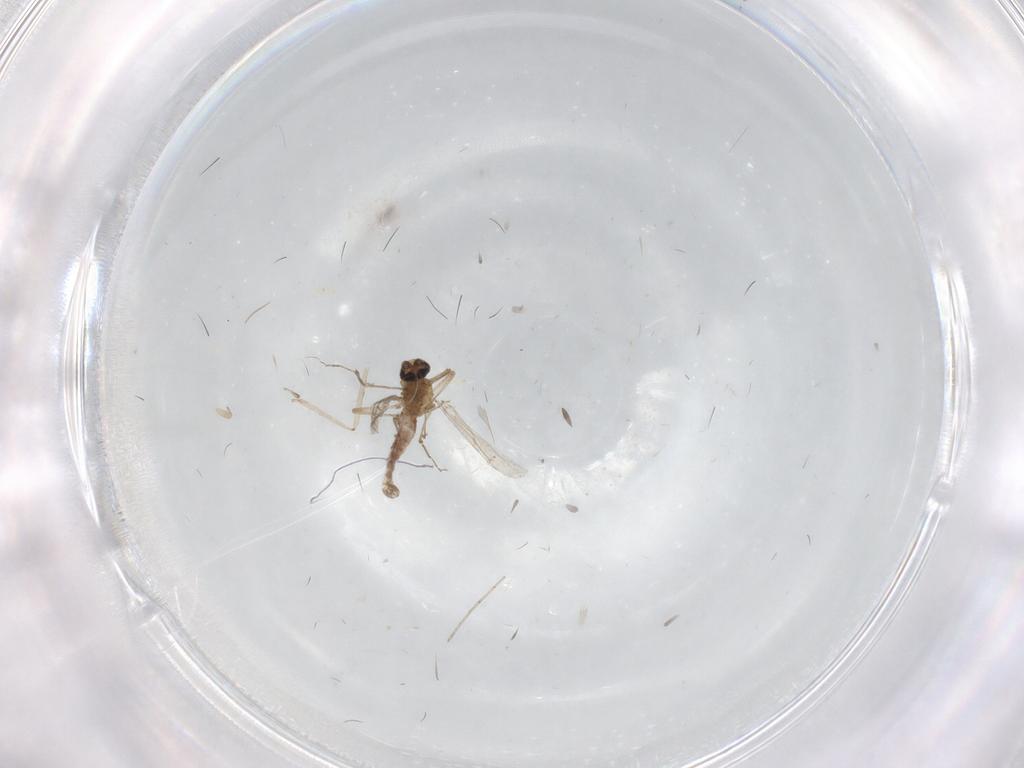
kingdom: Animalia
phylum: Arthropoda
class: Insecta
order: Diptera
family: Cecidomyiidae
